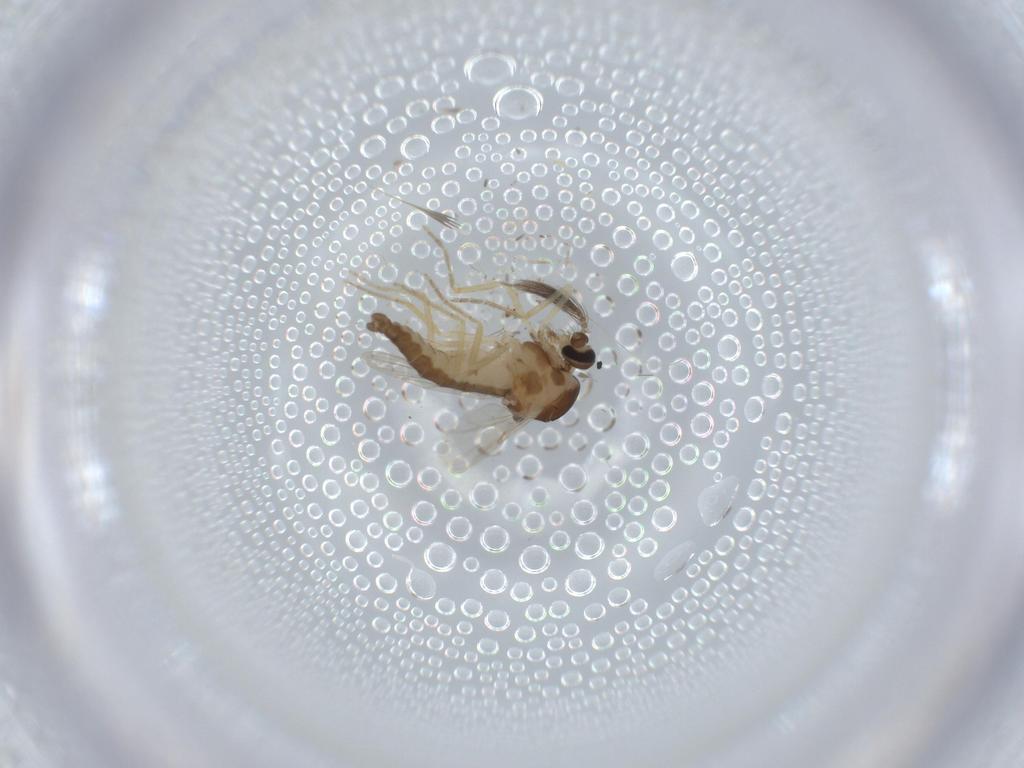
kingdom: Animalia
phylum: Arthropoda
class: Insecta
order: Diptera
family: Ceratopogonidae
